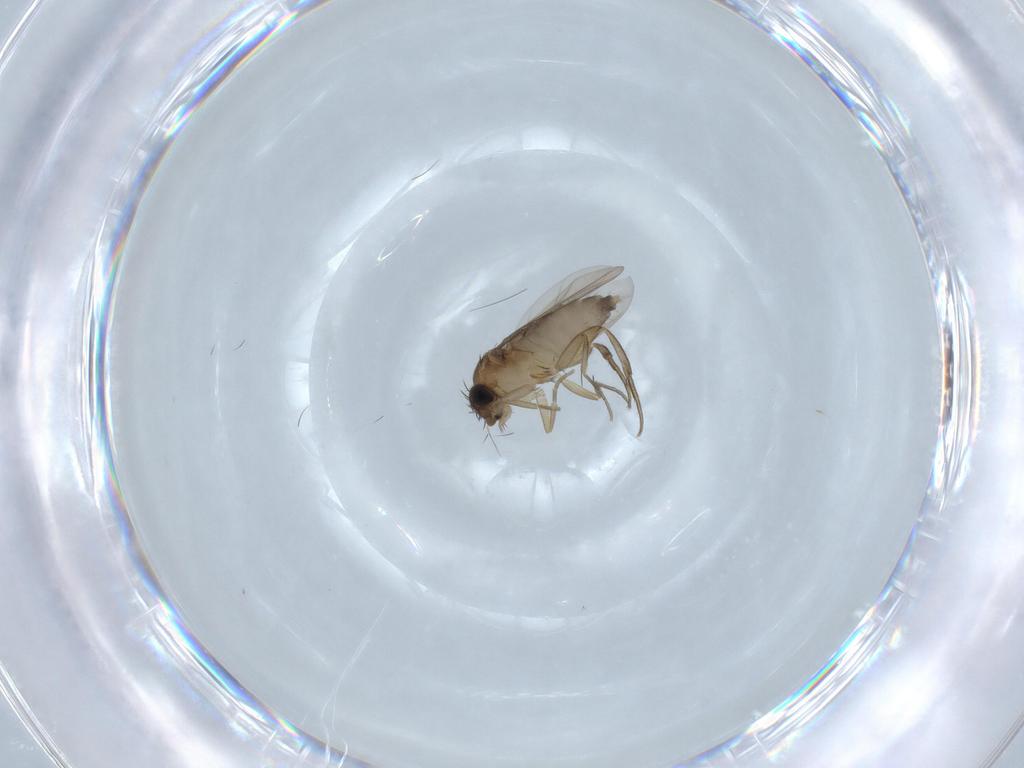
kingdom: Animalia
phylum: Arthropoda
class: Insecta
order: Diptera
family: Phoridae
